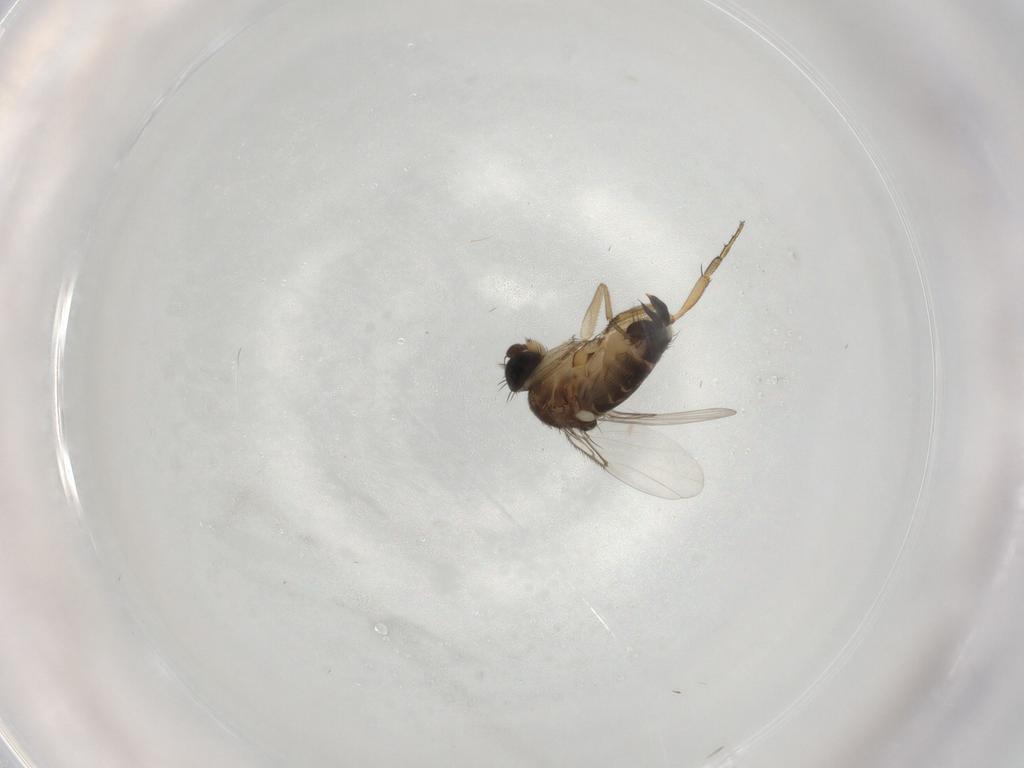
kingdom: Animalia
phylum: Arthropoda
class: Insecta
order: Diptera
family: Phoridae
